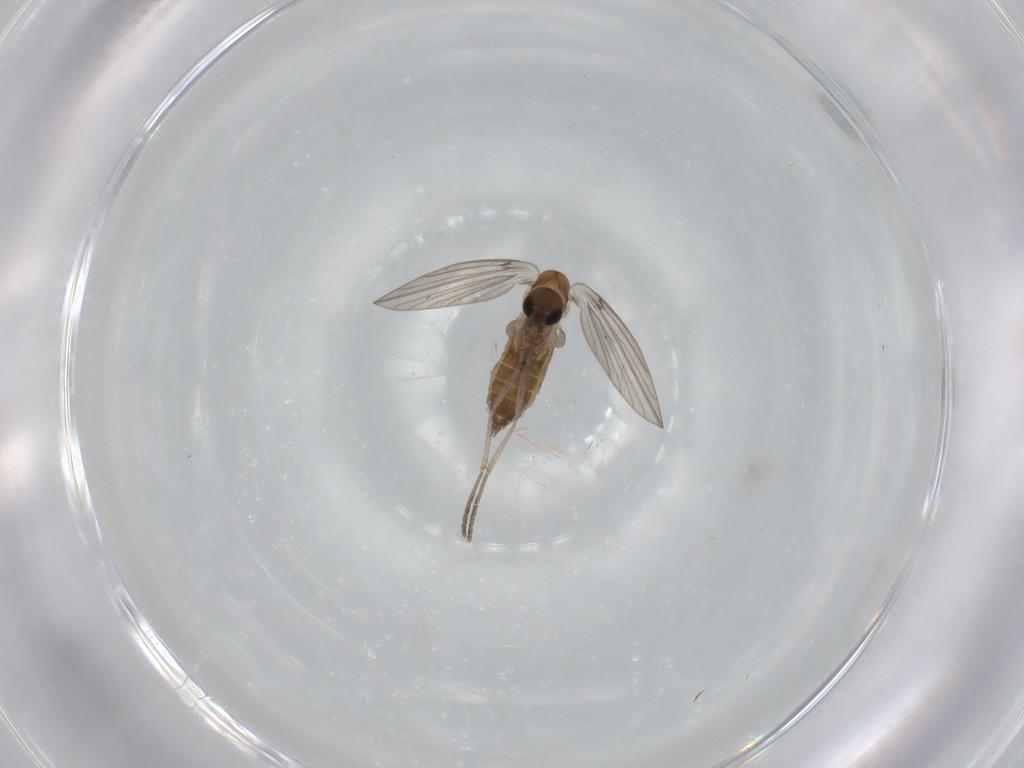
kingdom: Animalia
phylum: Arthropoda
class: Insecta
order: Diptera
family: Psychodidae
